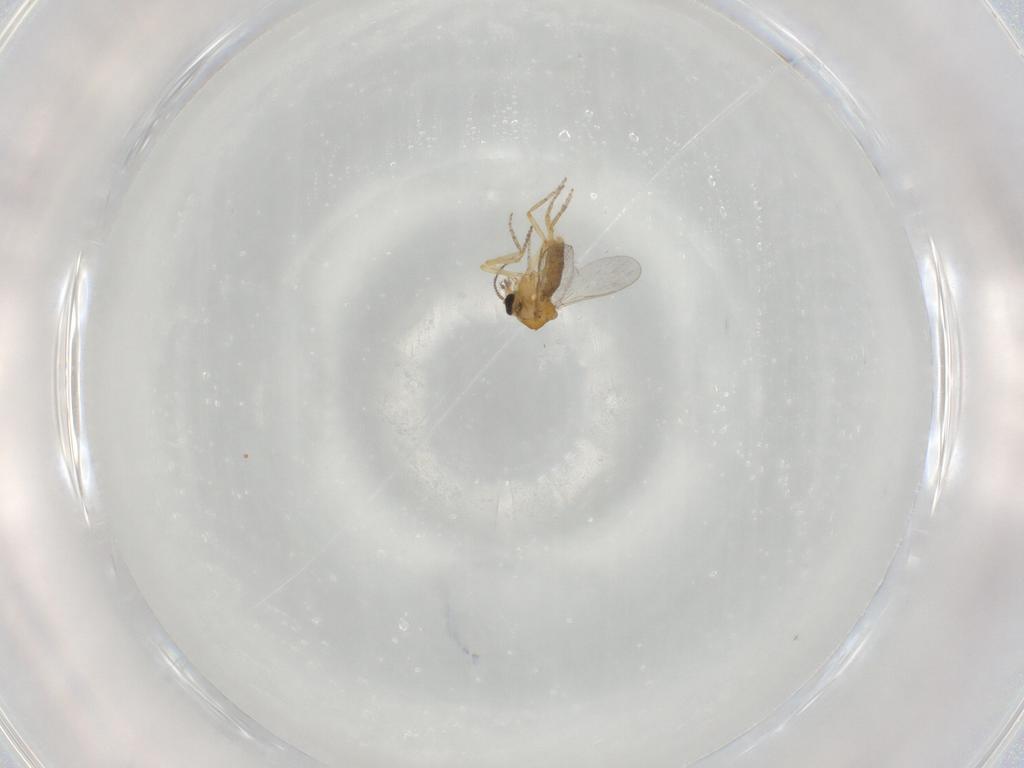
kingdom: Animalia
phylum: Arthropoda
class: Insecta
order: Diptera
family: Ceratopogonidae
